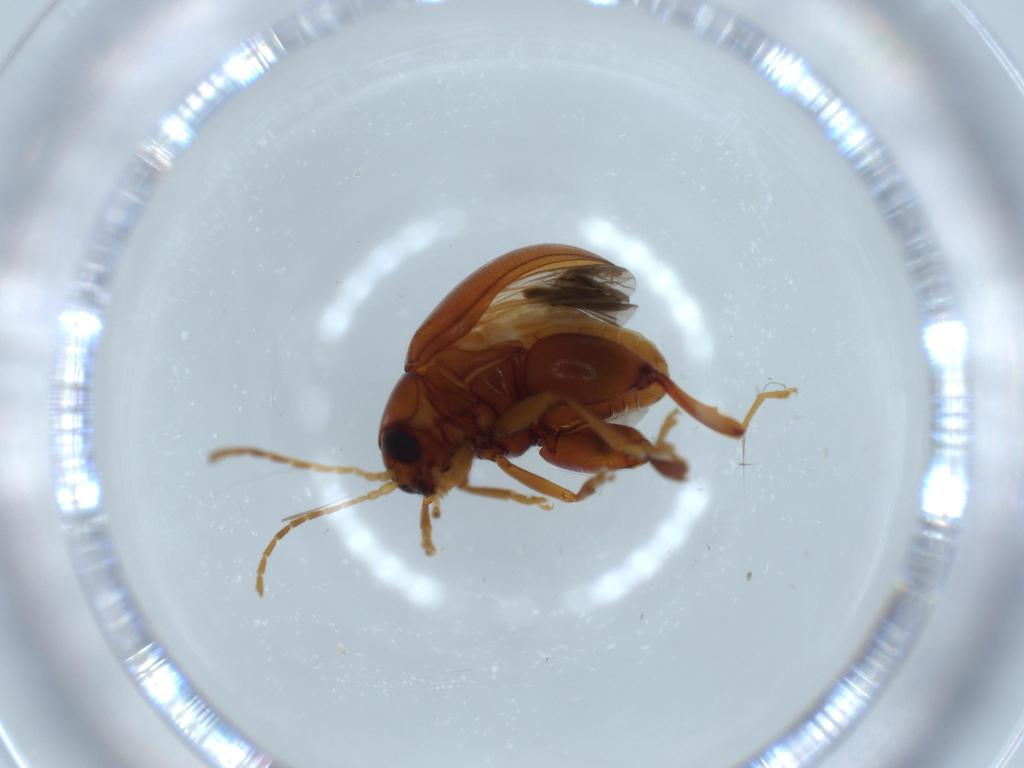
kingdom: Animalia
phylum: Arthropoda
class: Insecta
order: Coleoptera
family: Chrysomelidae
